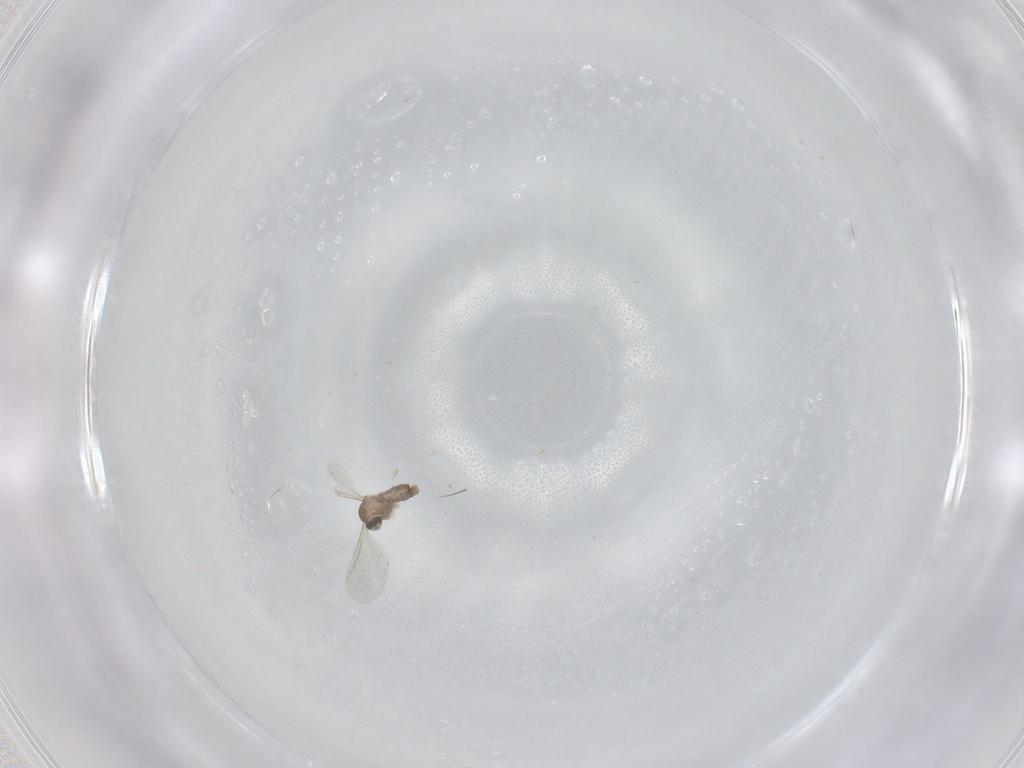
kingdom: Animalia
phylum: Arthropoda
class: Insecta
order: Diptera
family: Cecidomyiidae
